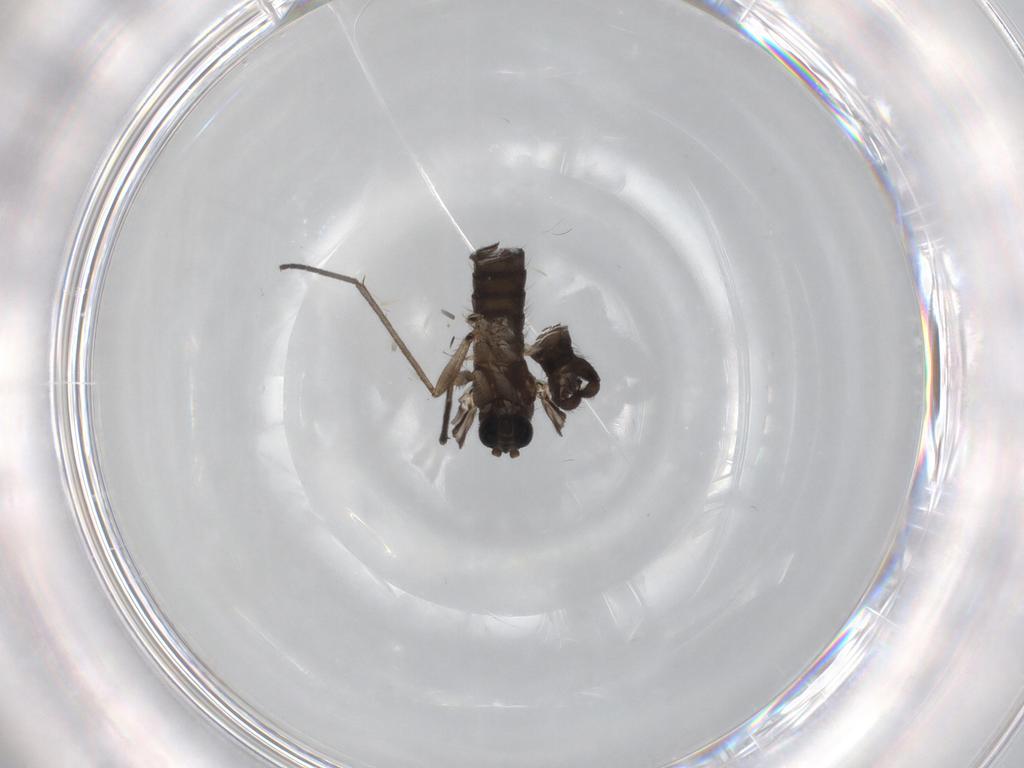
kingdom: Animalia
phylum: Arthropoda
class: Insecta
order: Diptera
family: Sciaridae
